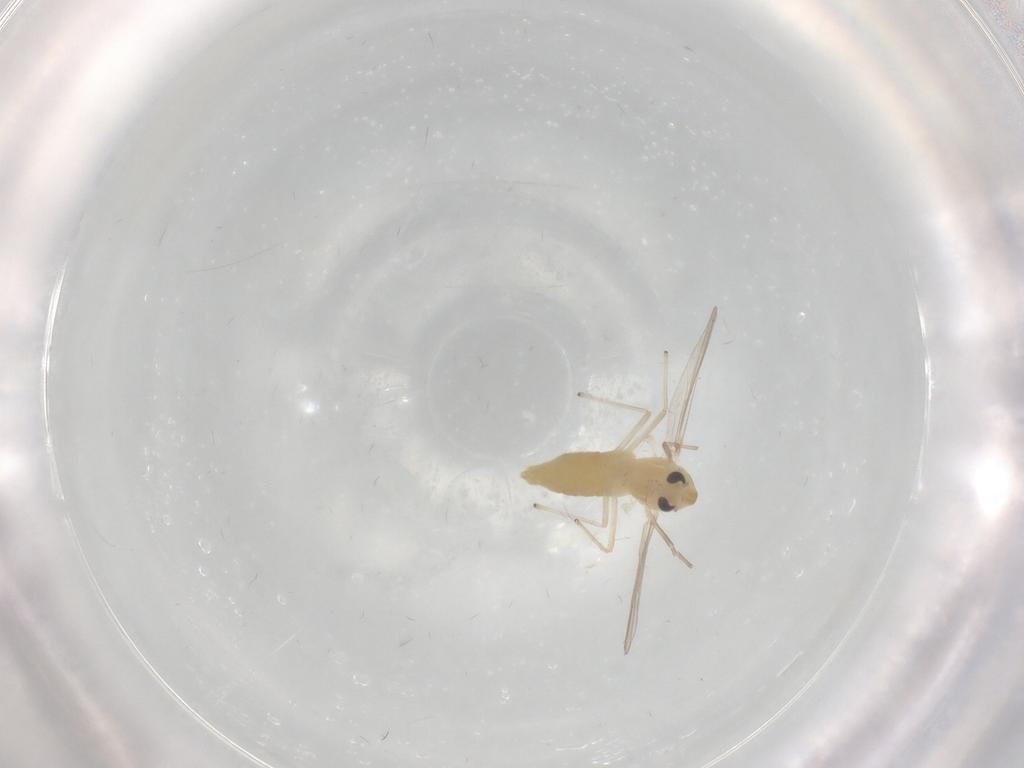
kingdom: Animalia
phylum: Arthropoda
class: Insecta
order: Diptera
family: Chironomidae
